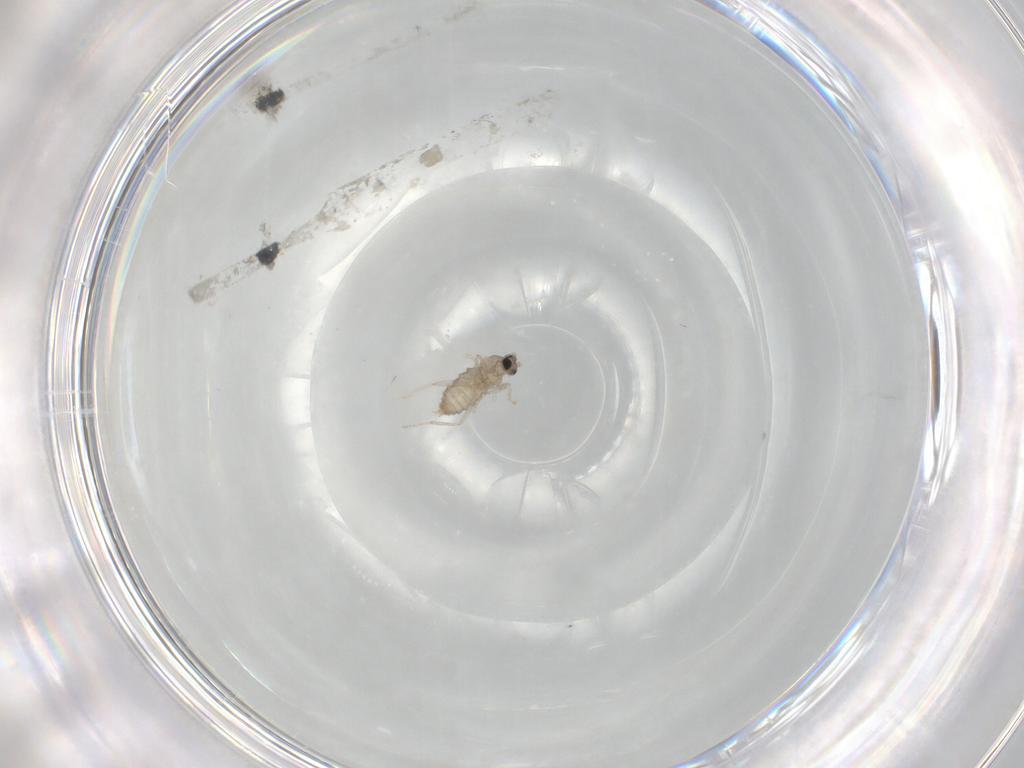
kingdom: Animalia
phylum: Arthropoda
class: Insecta
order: Diptera
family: Cecidomyiidae
